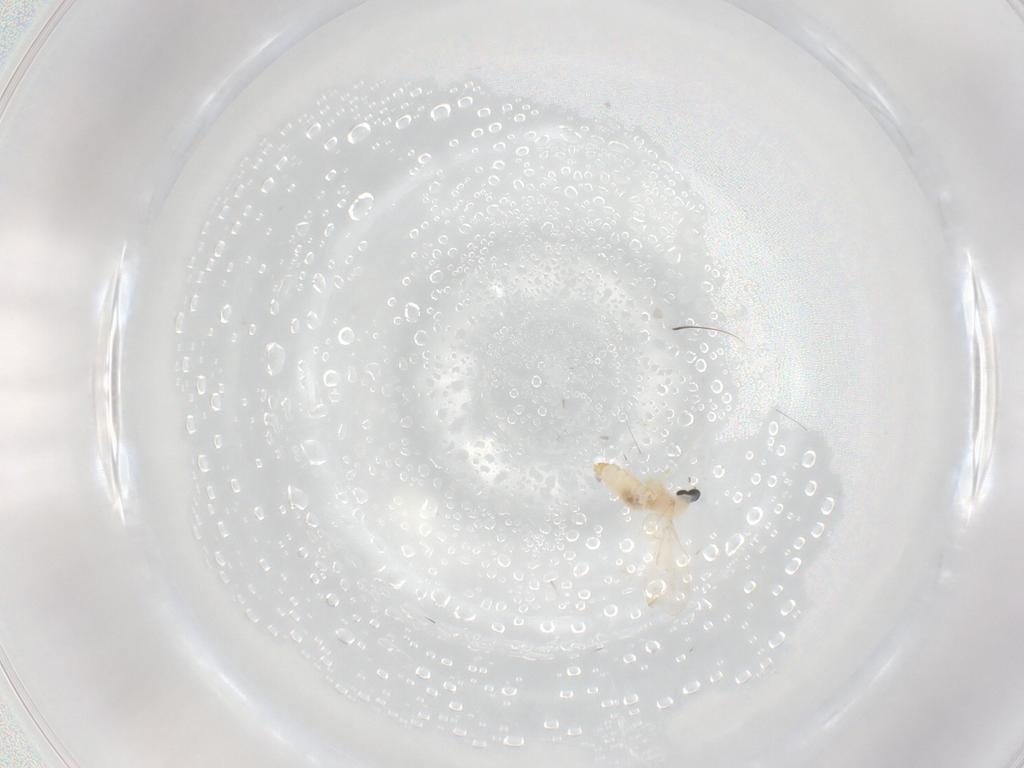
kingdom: Animalia
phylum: Arthropoda
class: Insecta
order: Diptera
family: Cecidomyiidae
